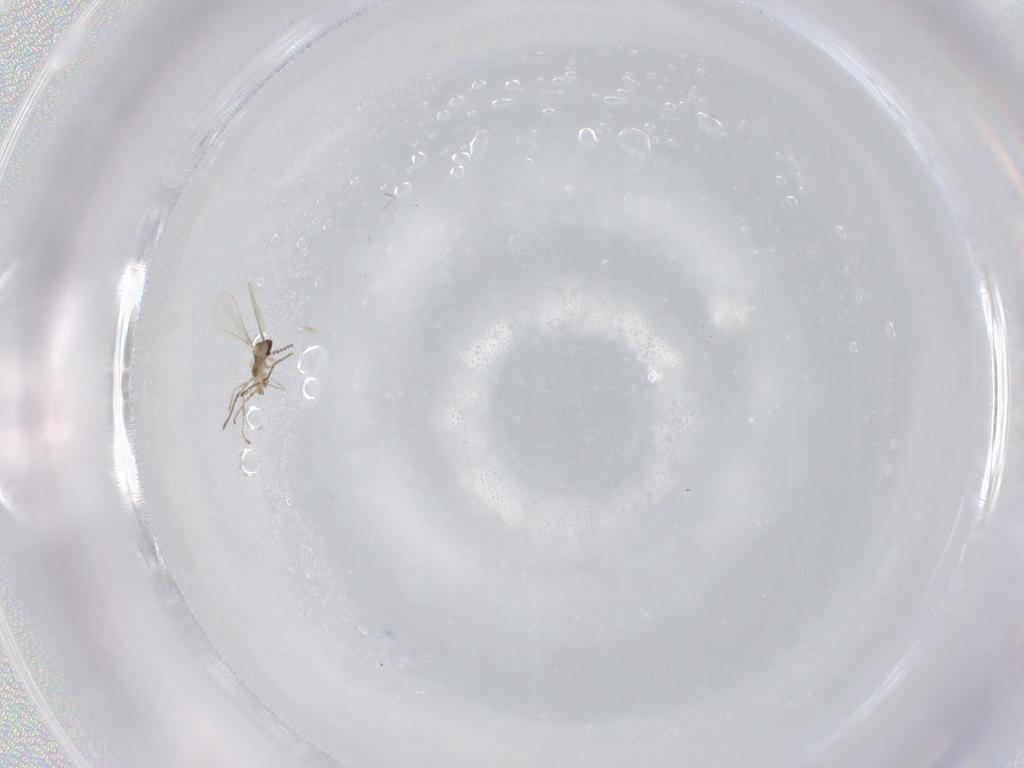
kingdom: Animalia
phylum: Arthropoda
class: Insecta
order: Diptera
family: Cecidomyiidae
